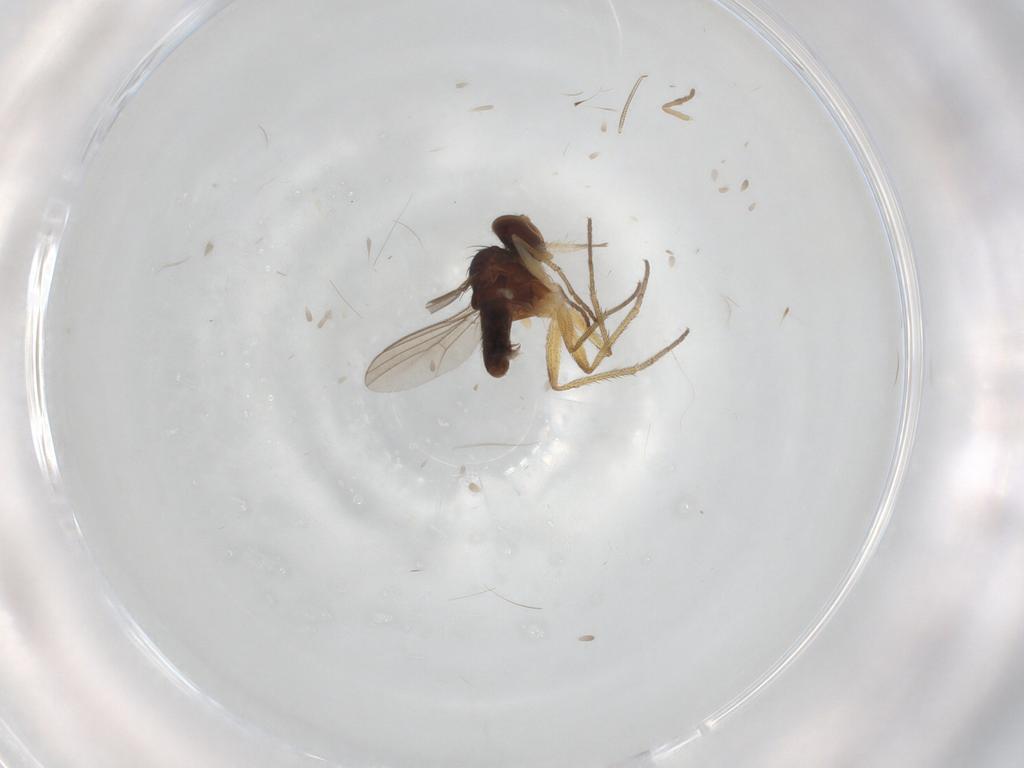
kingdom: Animalia
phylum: Arthropoda
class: Insecta
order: Diptera
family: Dolichopodidae
